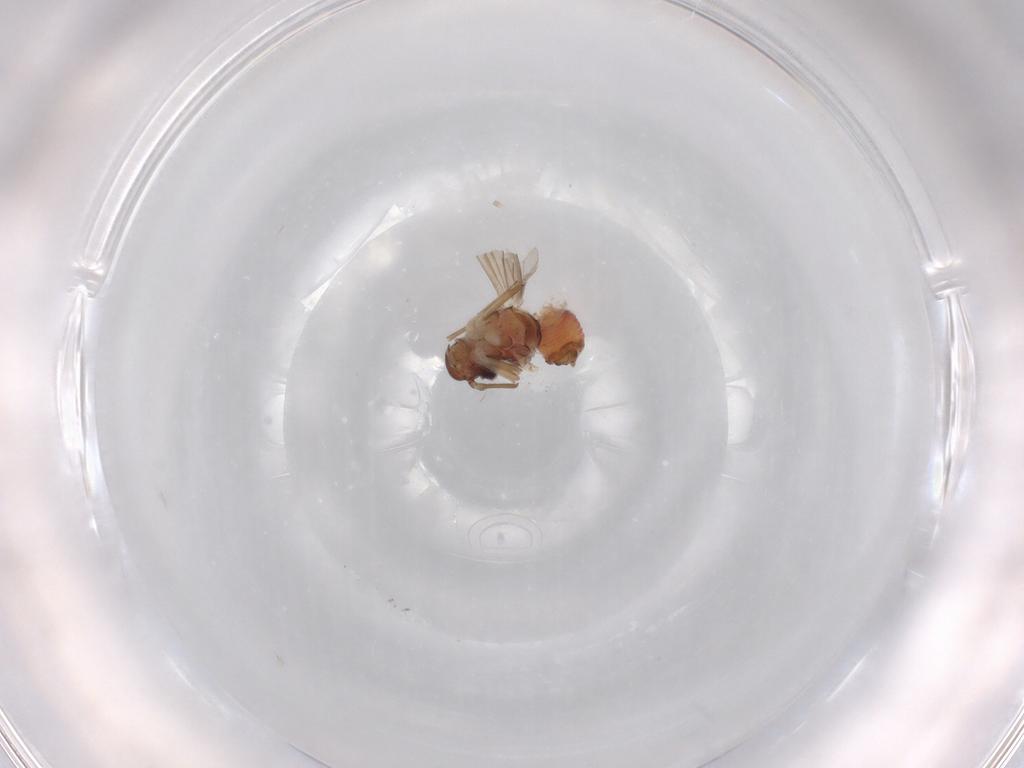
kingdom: Animalia
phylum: Arthropoda
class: Insecta
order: Psocodea
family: Caeciliusidae
